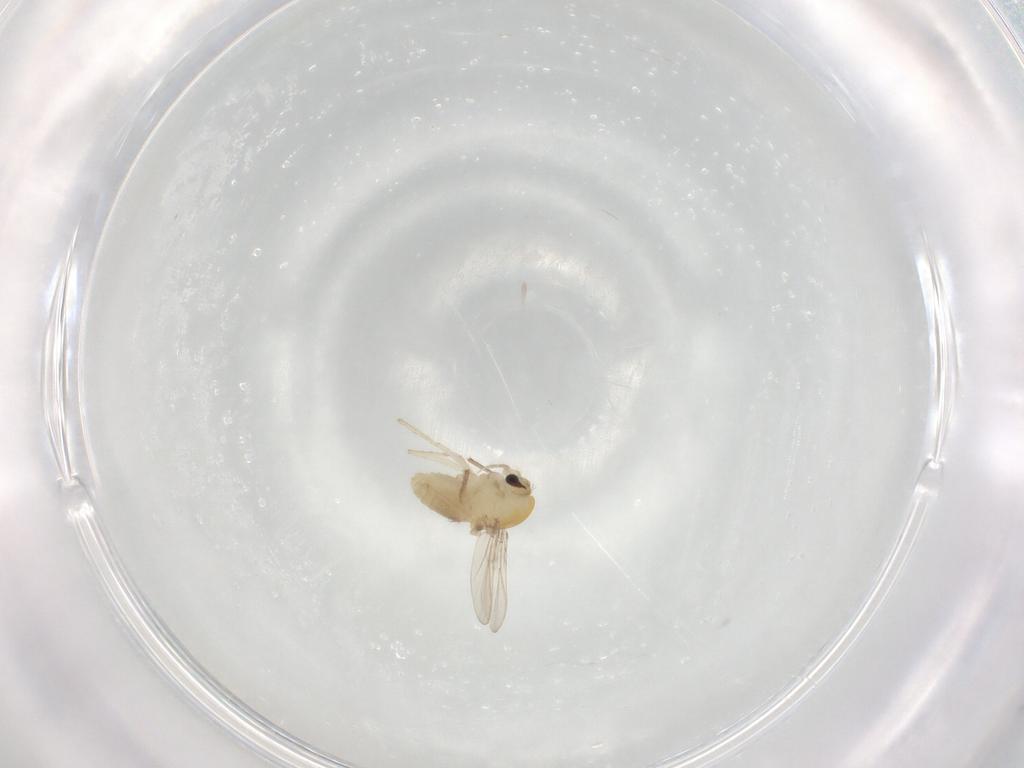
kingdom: Animalia
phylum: Arthropoda
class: Insecta
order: Diptera
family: Chironomidae
